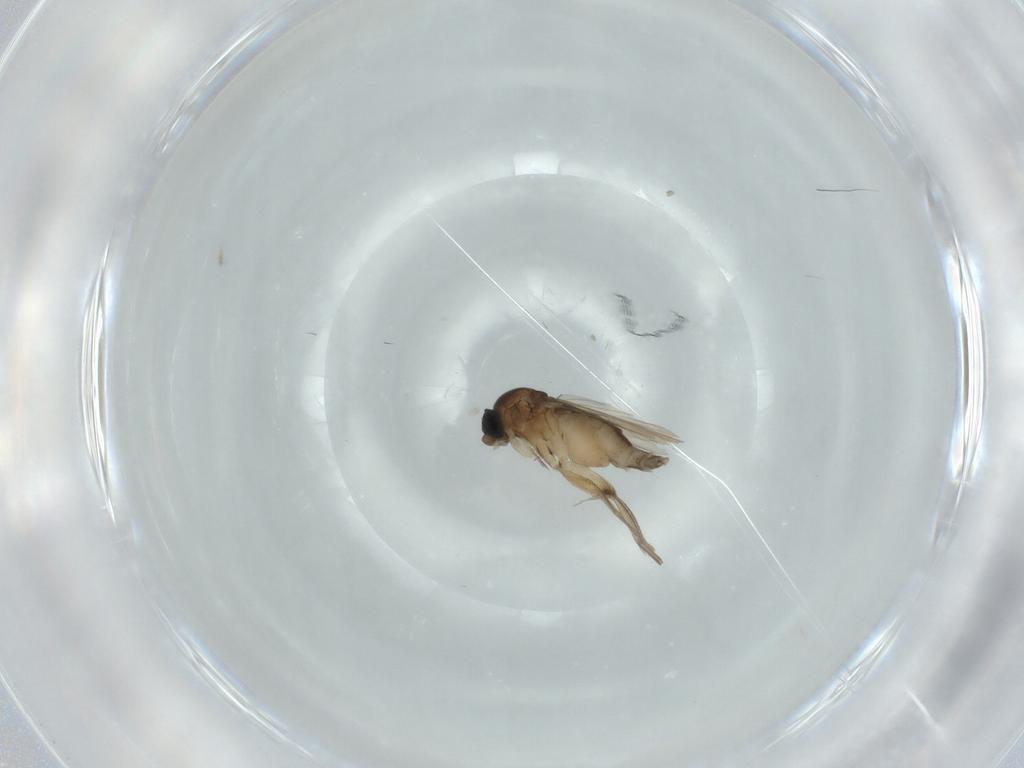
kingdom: Animalia
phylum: Arthropoda
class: Insecta
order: Diptera
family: Phoridae
